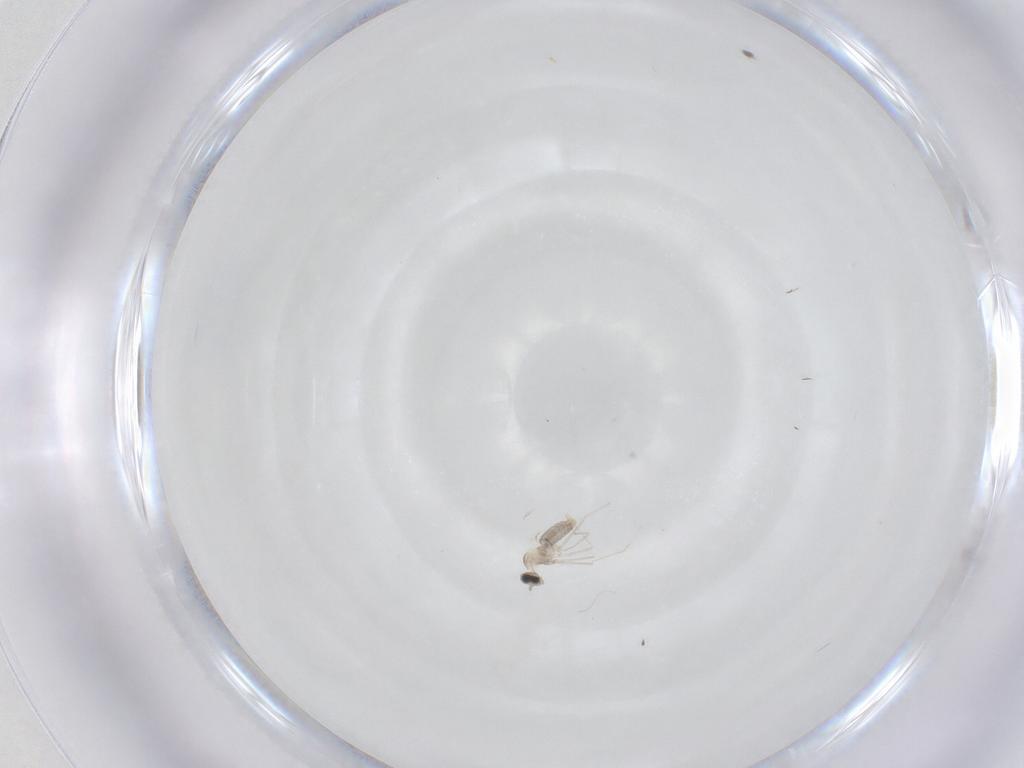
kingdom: Animalia
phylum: Arthropoda
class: Insecta
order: Diptera
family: Cecidomyiidae
